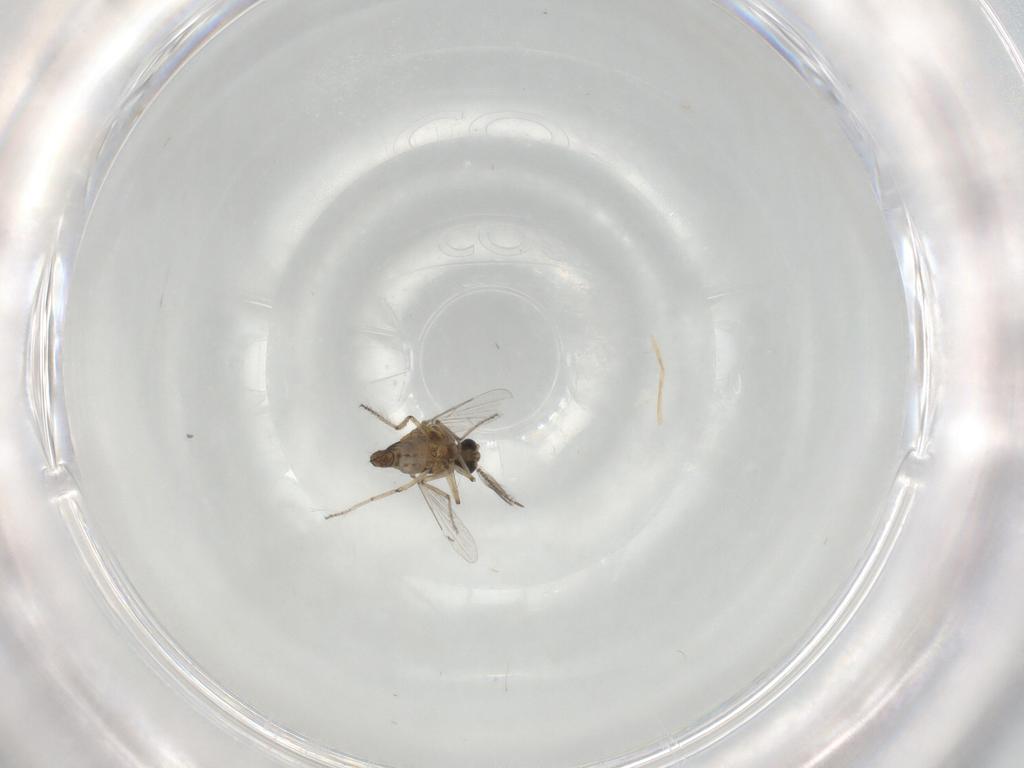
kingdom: Animalia
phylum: Arthropoda
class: Insecta
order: Diptera
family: Ceratopogonidae
